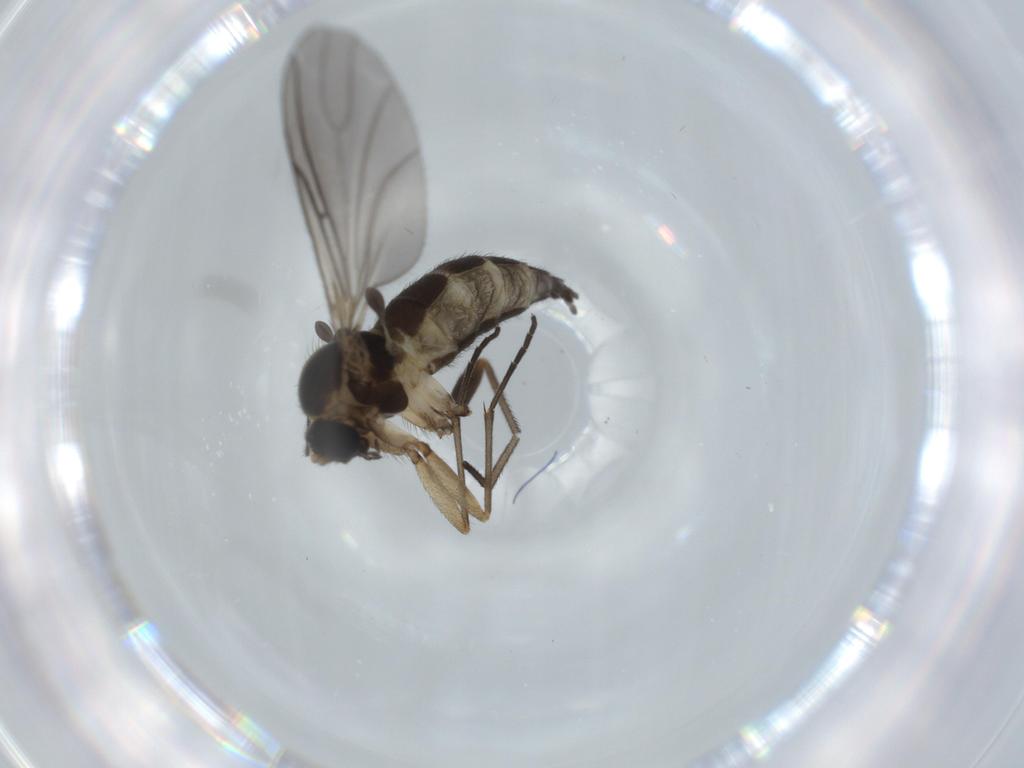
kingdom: Animalia
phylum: Arthropoda
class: Insecta
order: Diptera
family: Sciaridae
